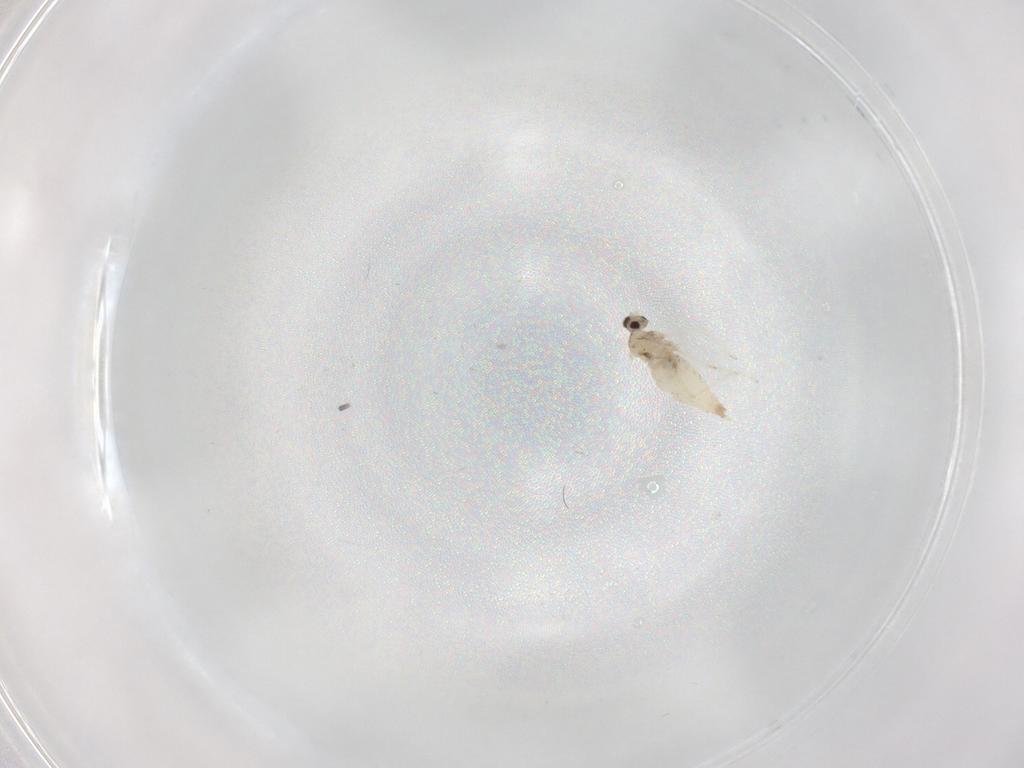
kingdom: Animalia
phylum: Arthropoda
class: Insecta
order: Diptera
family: Cecidomyiidae
